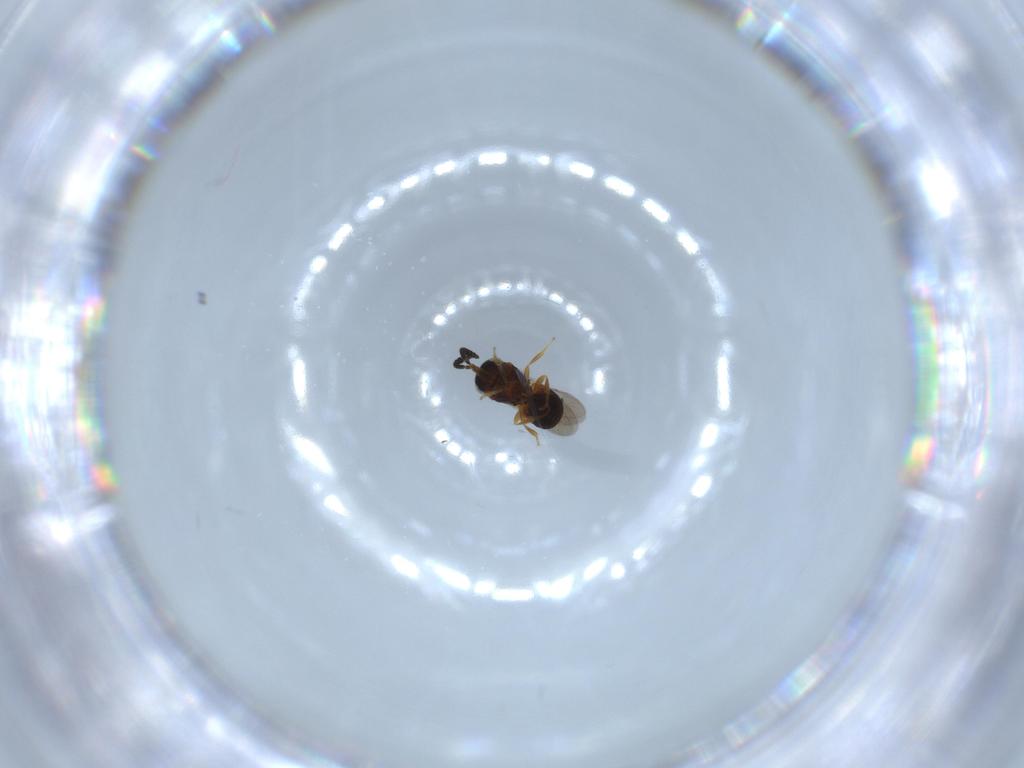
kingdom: Animalia
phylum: Arthropoda
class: Insecta
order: Hymenoptera
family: Scelionidae
